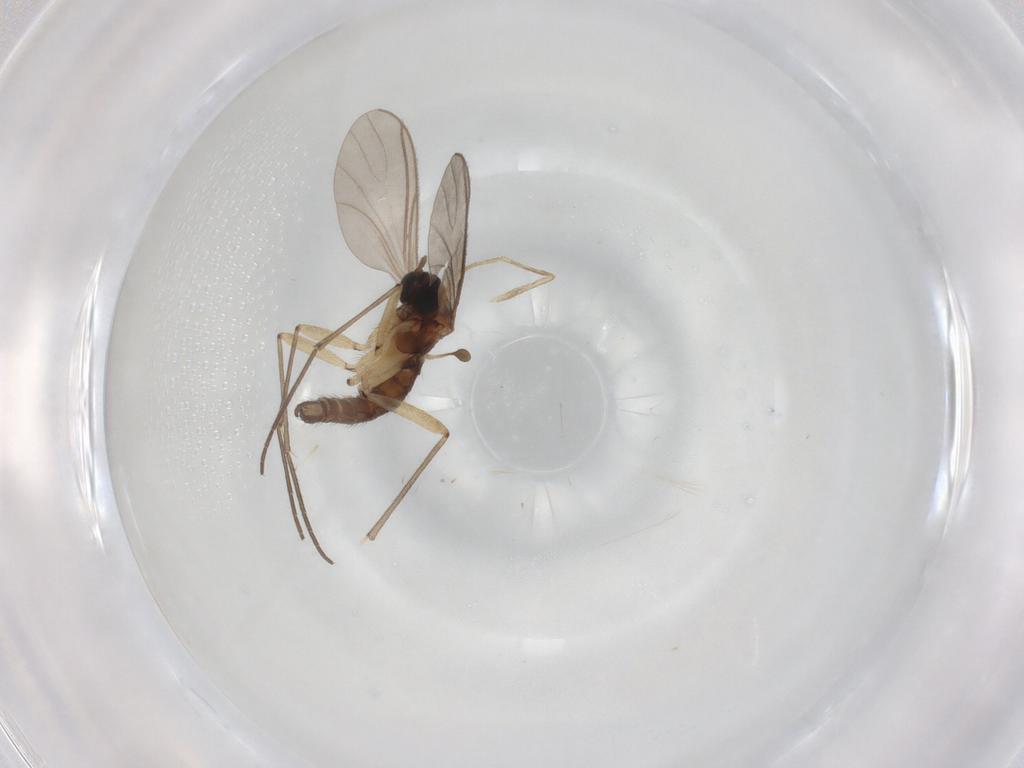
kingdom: Animalia
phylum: Arthropoda
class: Insecta
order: Diptera
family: Sciaridae
